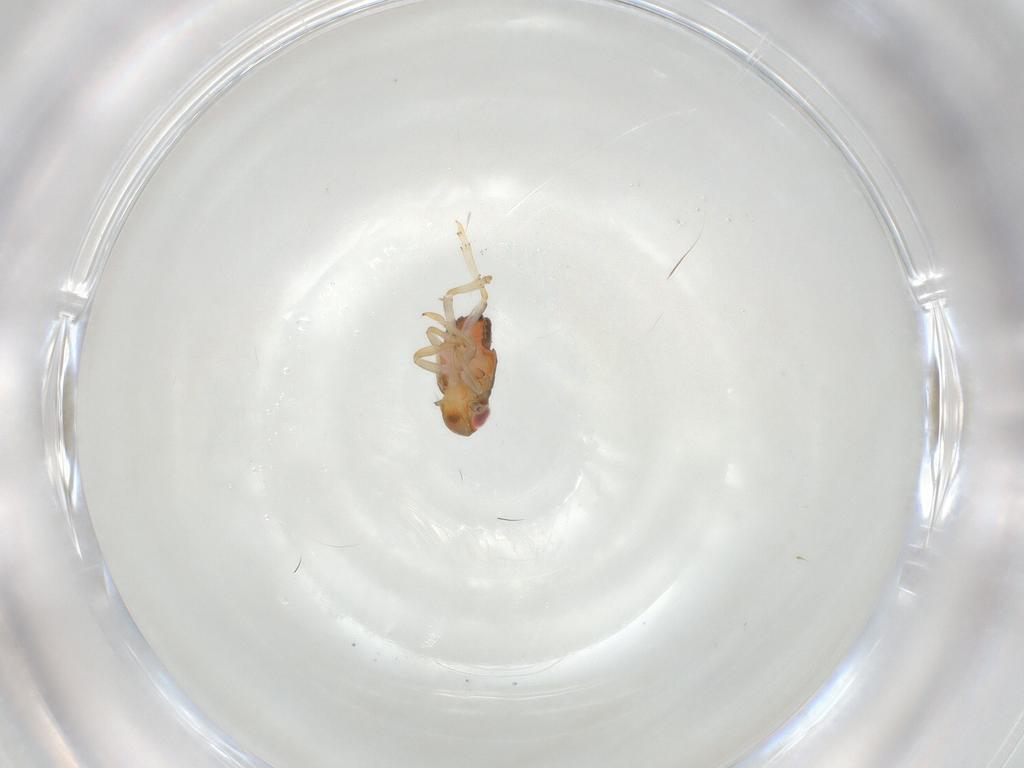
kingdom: Animalia
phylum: Arthropoda
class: Insecta
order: Hemiptera
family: Issidae
